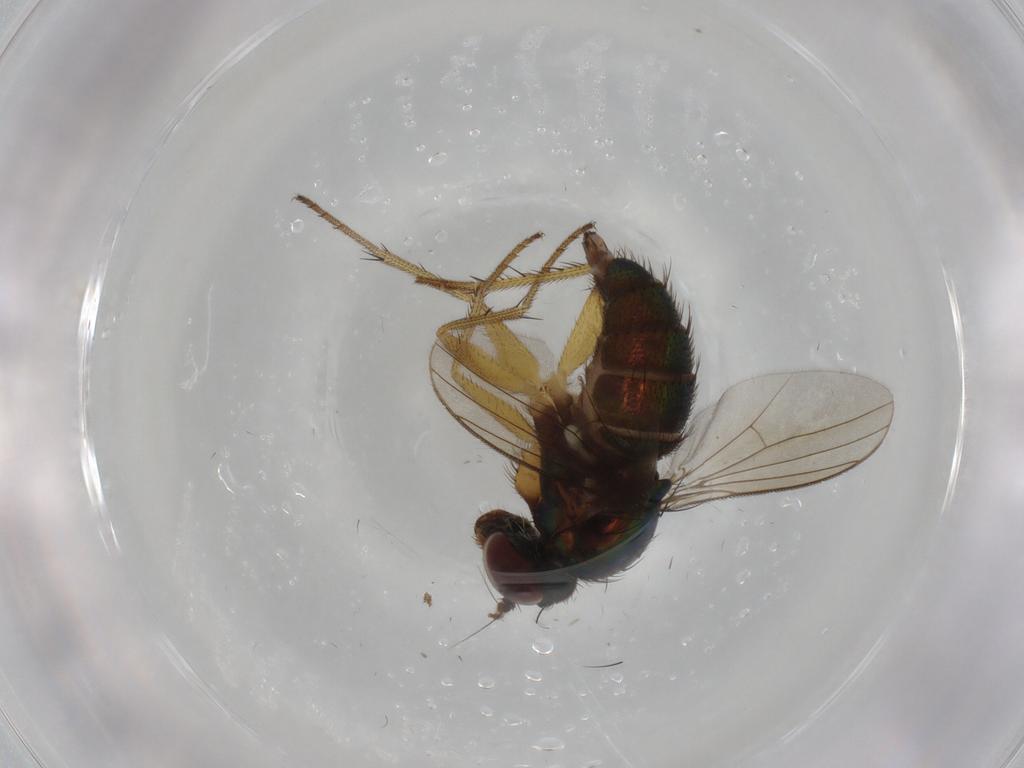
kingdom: Animalia
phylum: Arthropoda
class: Insecta
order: Diptera
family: Dolichopodidae
